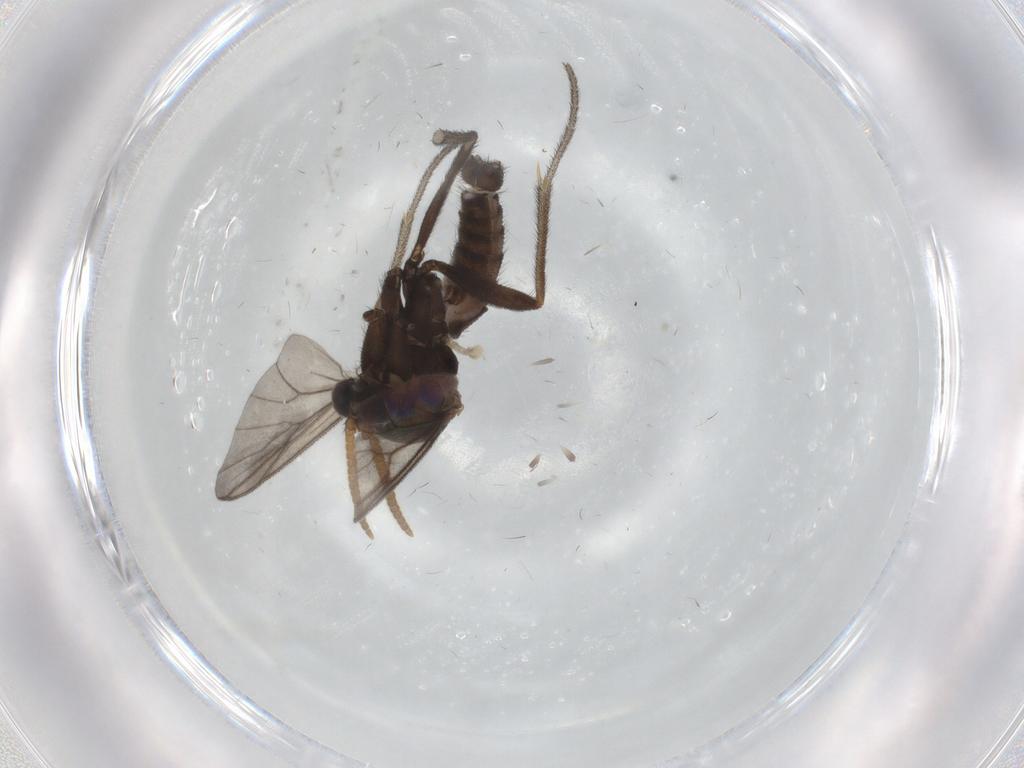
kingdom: Animalia
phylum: Arthropoda
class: Insecta
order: Diptera
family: Mycetophilidae
